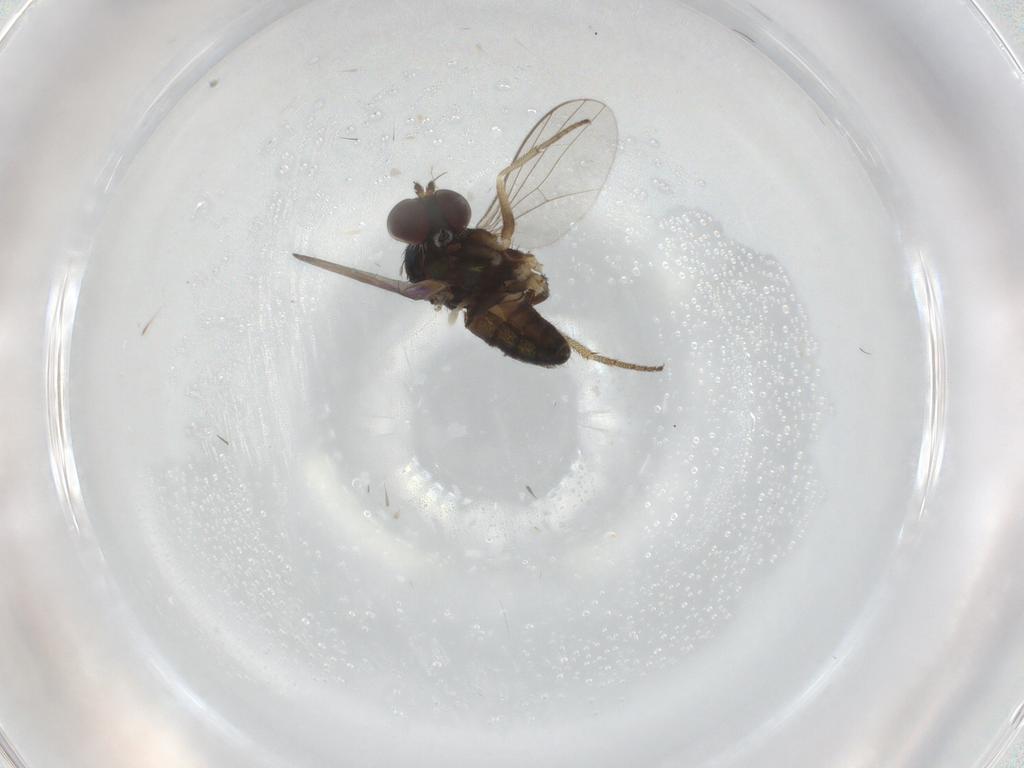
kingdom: Animalia
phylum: Arthropoda
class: Insecta
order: Diptera
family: Dolichopodidae
